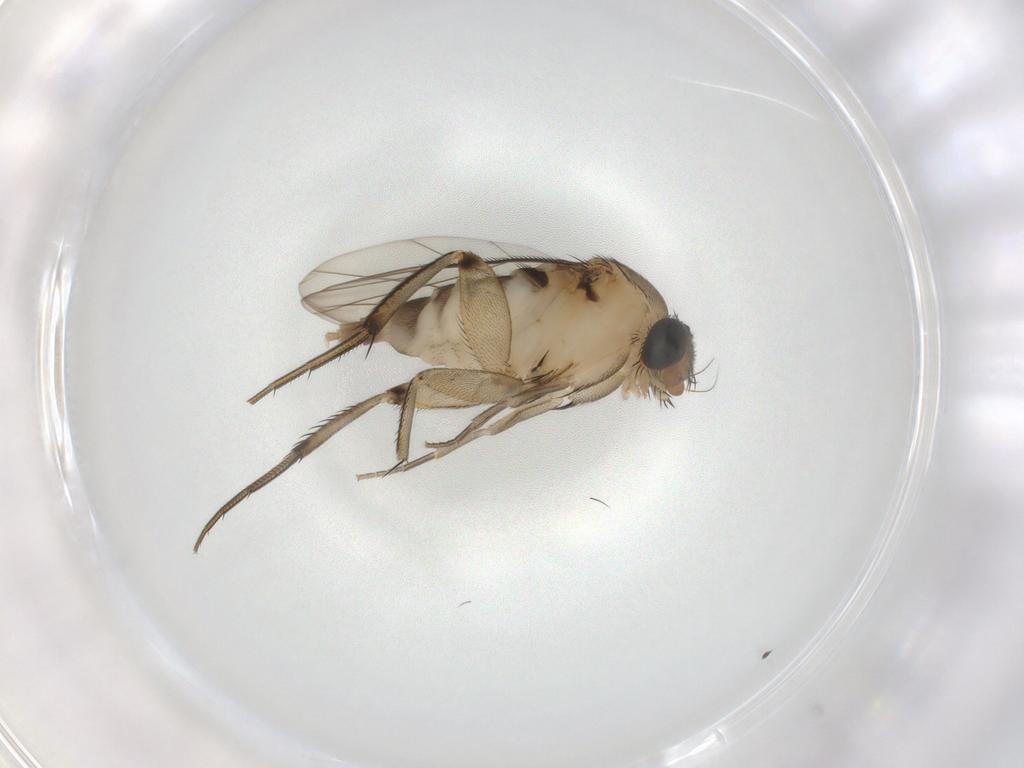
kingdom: Animalia
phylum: Arthropoda
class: Insecta
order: Diptera
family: Phoridae
